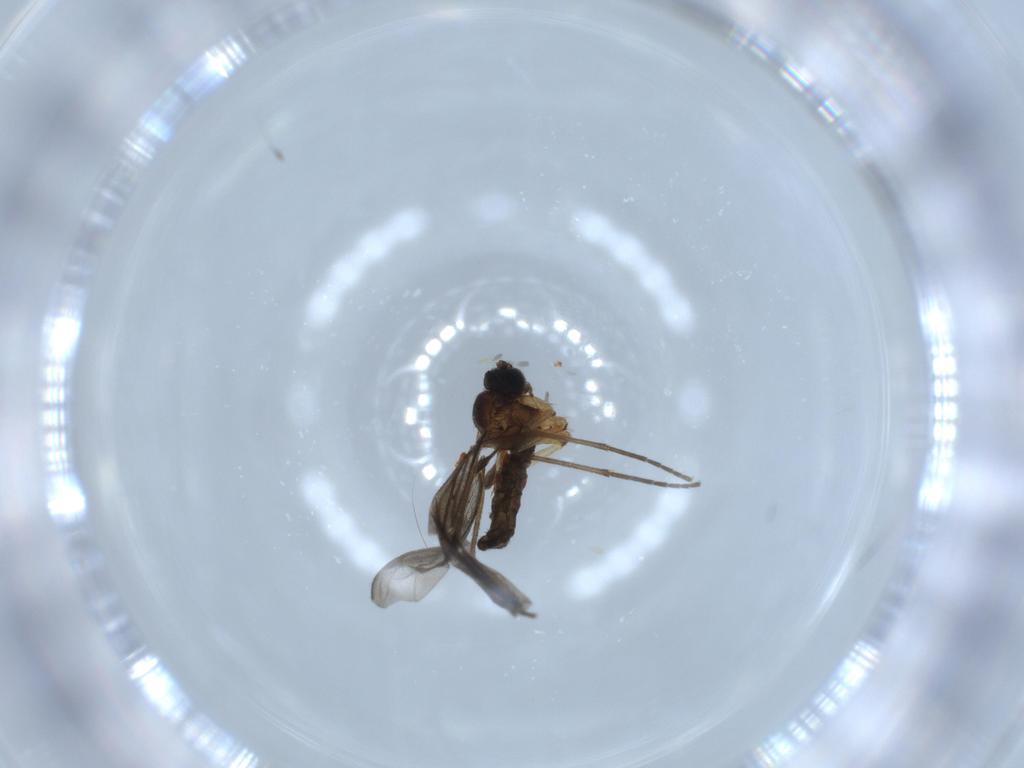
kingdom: Animalia
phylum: Arthropoda
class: Insecta
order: Diptera
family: Sciaridae
